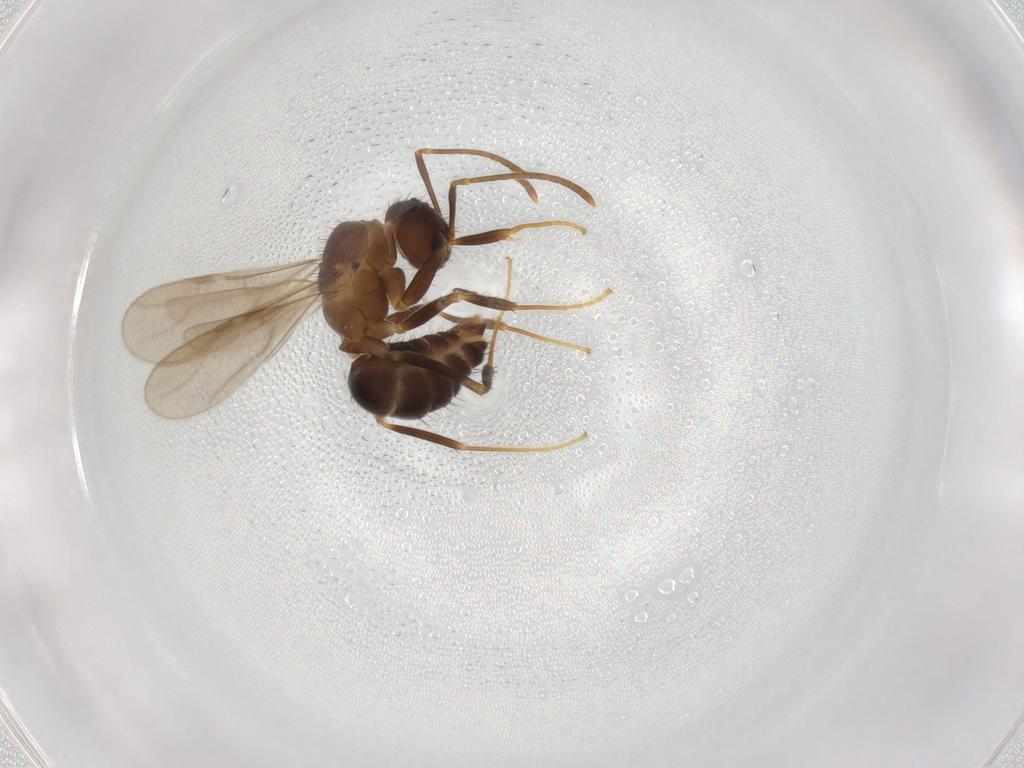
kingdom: Animalia
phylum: Arthropoda
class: Insecta
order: Hymenoptera
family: Formicidae
